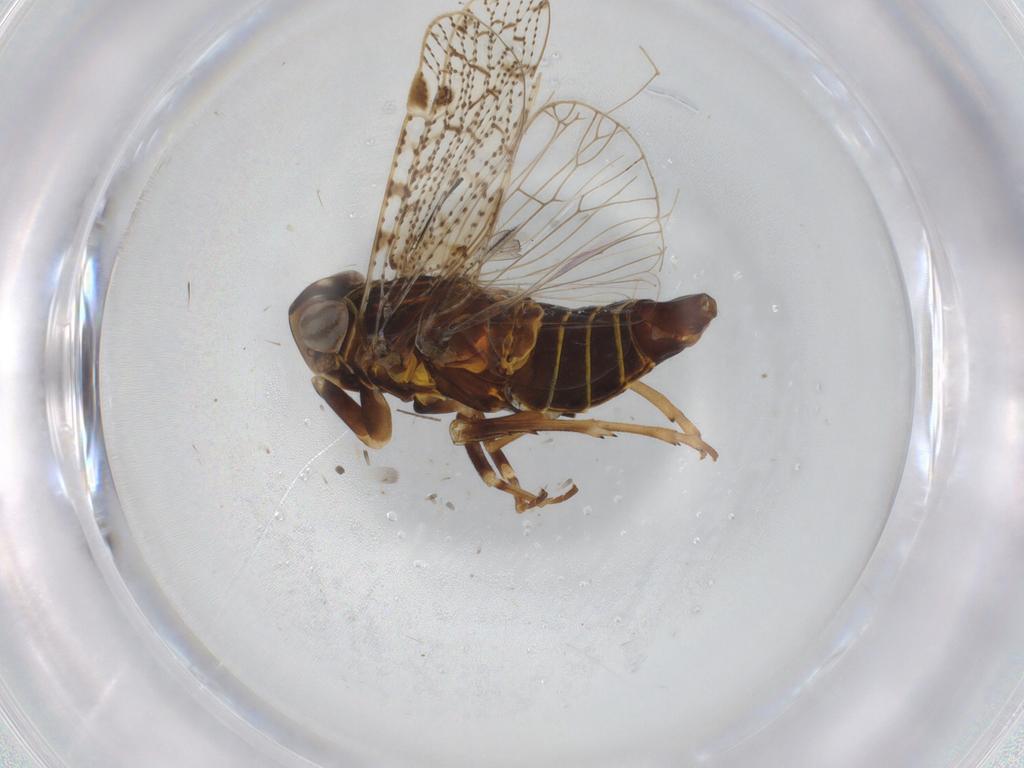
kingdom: Animalia
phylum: Arthropoda
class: Insecta
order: Hemiptera
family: Cixiidae
